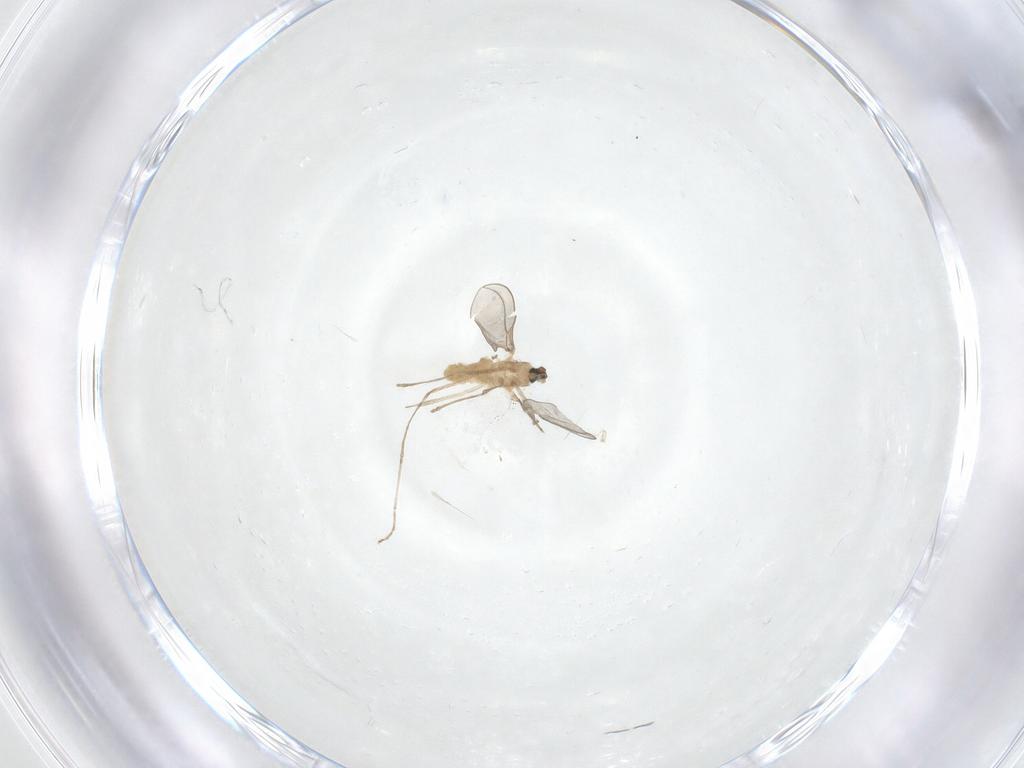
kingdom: Animalia
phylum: Arthropoda
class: Insecta
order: Diptera
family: Cecidomyiidae
